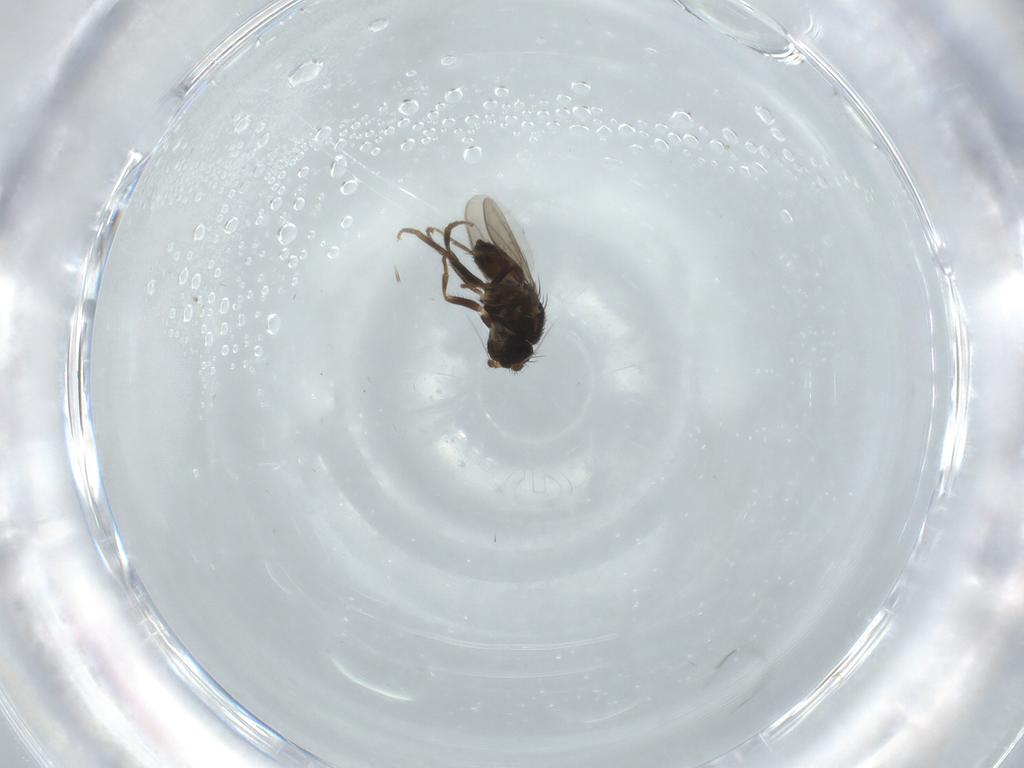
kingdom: Animalia
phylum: Arthropoda
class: Insecta
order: Diptera
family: Sphaeroceridae
